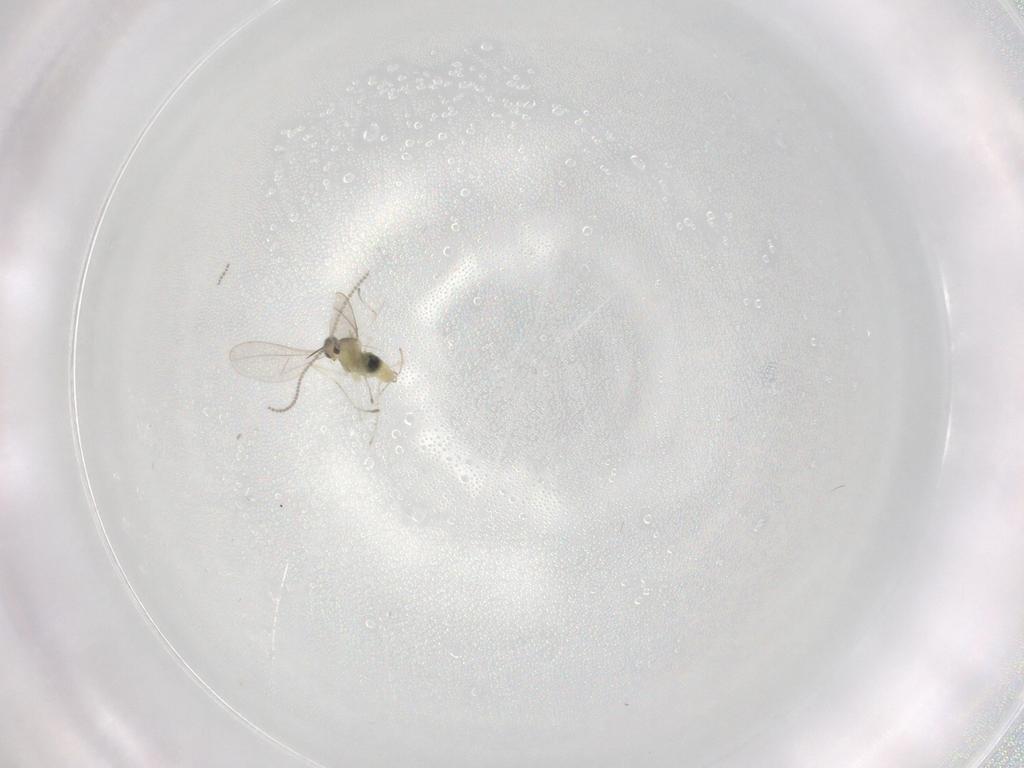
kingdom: Animalia
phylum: Arthropoda
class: Insecta
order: Diptera
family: Cecidomyiidae
